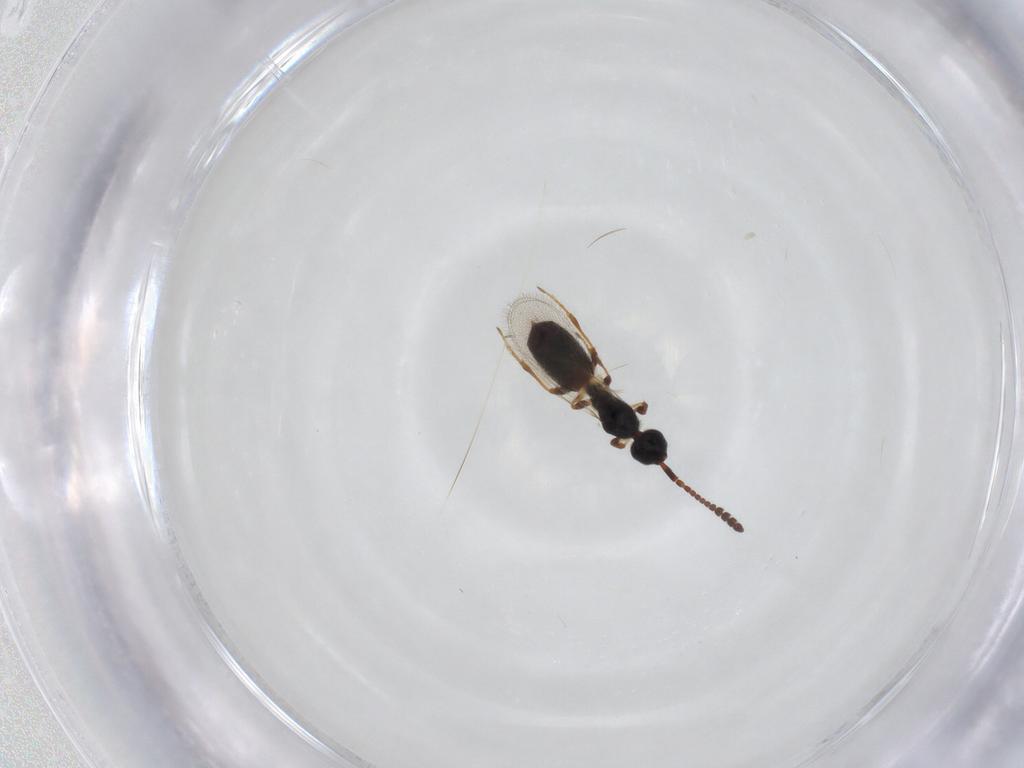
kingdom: Animalia
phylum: Arthropoda
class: Insecta
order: Hymenoptera
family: Diapriidae
